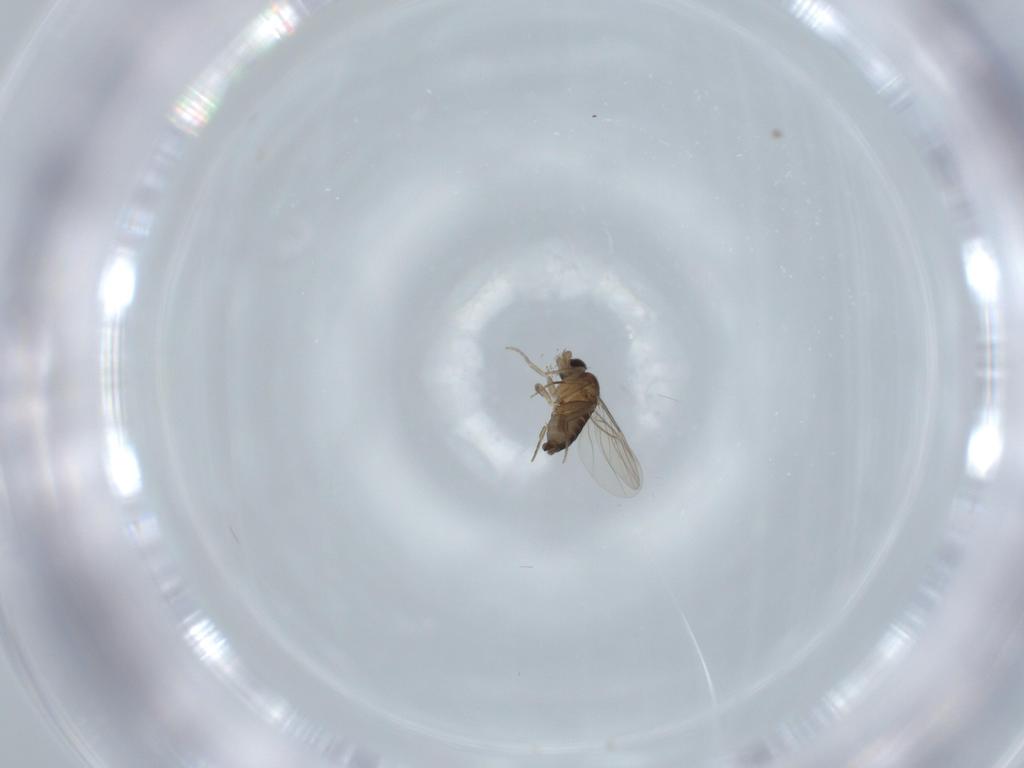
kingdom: Animalia
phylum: Arthropoda
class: Insecta
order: Diptera
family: Phoridae
